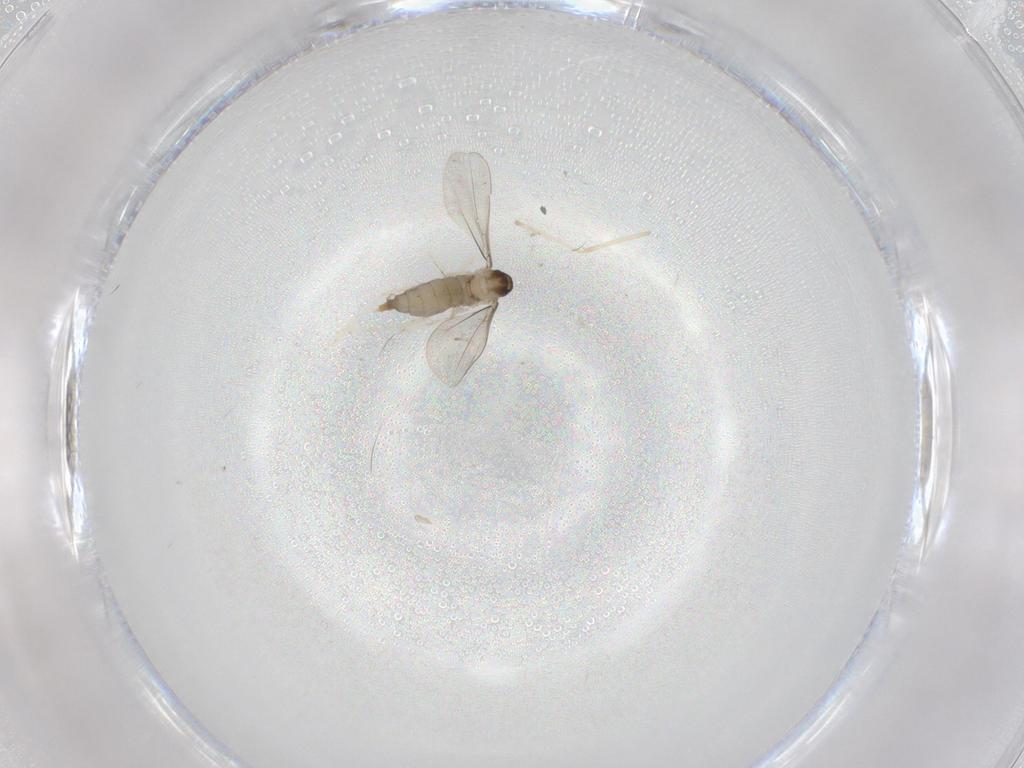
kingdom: Animalia
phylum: Arthropoda
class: Insecta
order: Diptera
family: Cecidomyiidae
